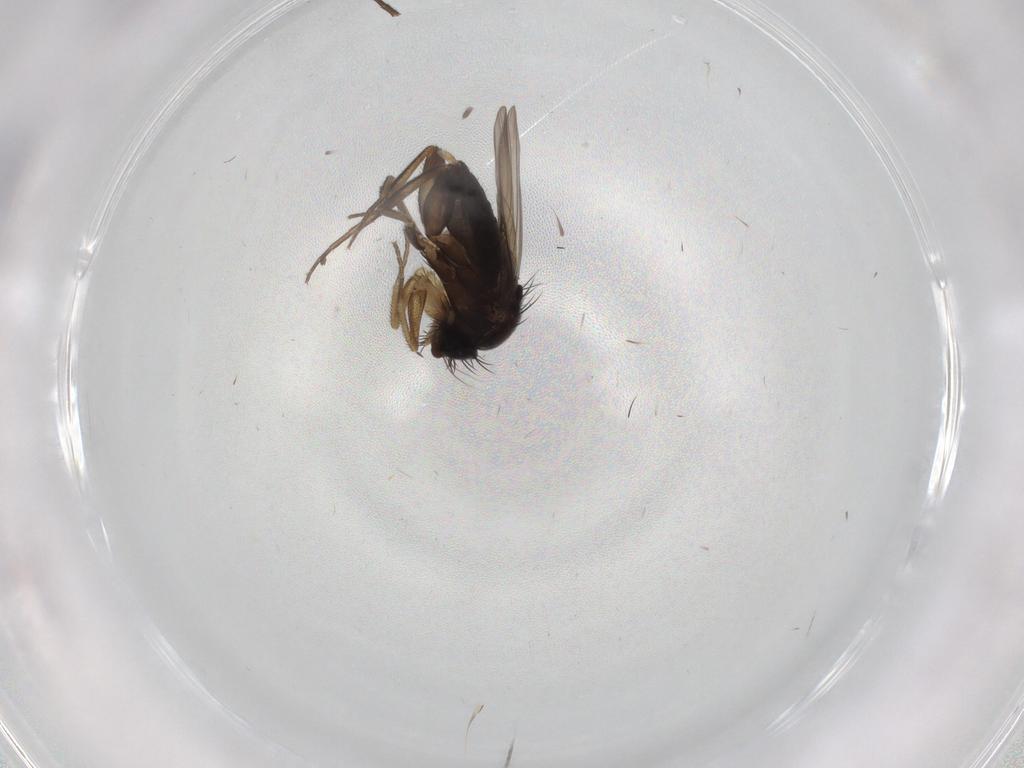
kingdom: Animalia
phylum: Arthropoda
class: Insecta
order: Diptera
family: Phoridae
